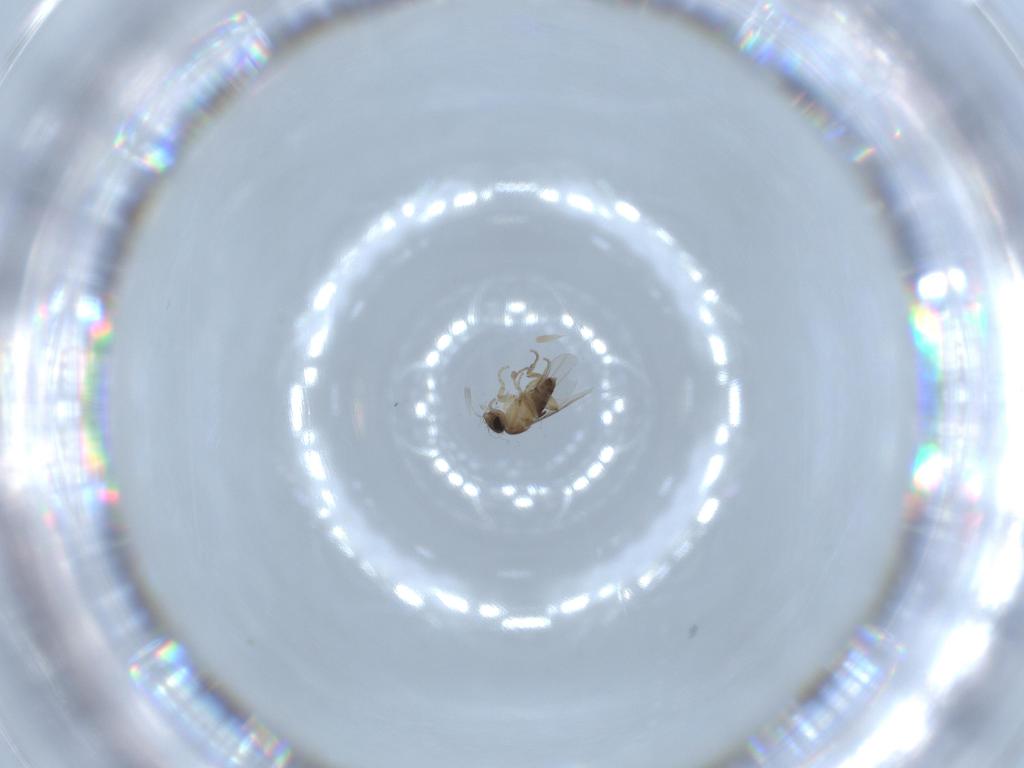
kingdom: Animalia
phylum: Arthropoda
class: Insecta
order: Diptera
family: Phoridae
